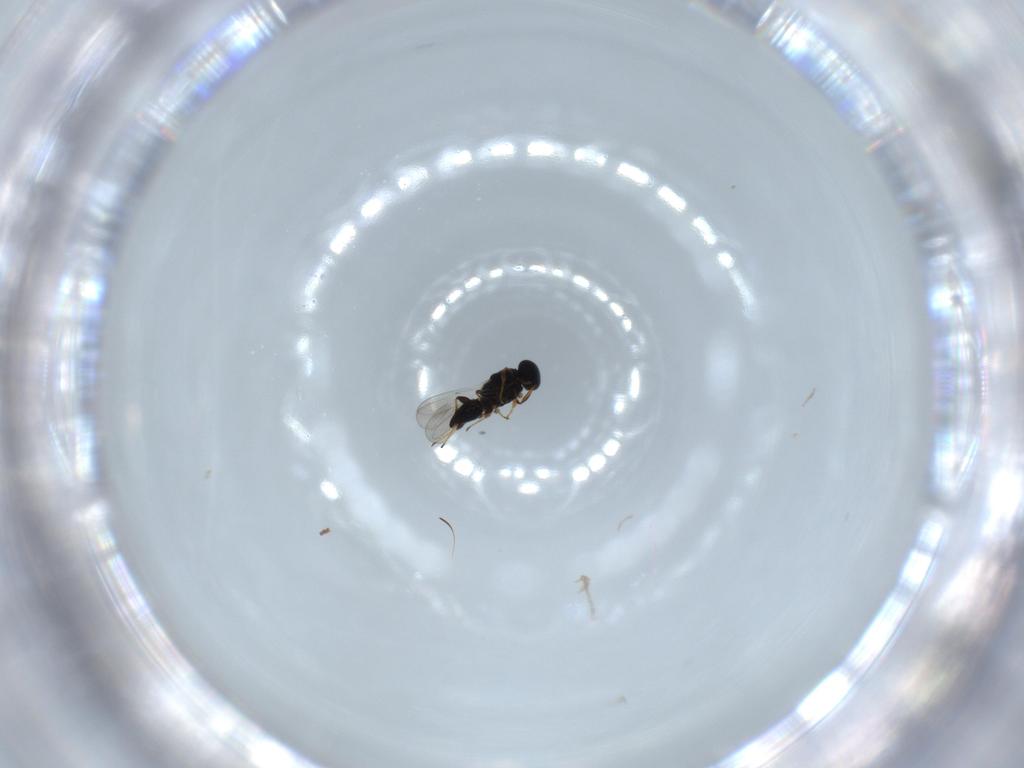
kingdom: Animalia
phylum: Arthropoda
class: Insecta
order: Hymenoptera
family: Platygastridae
